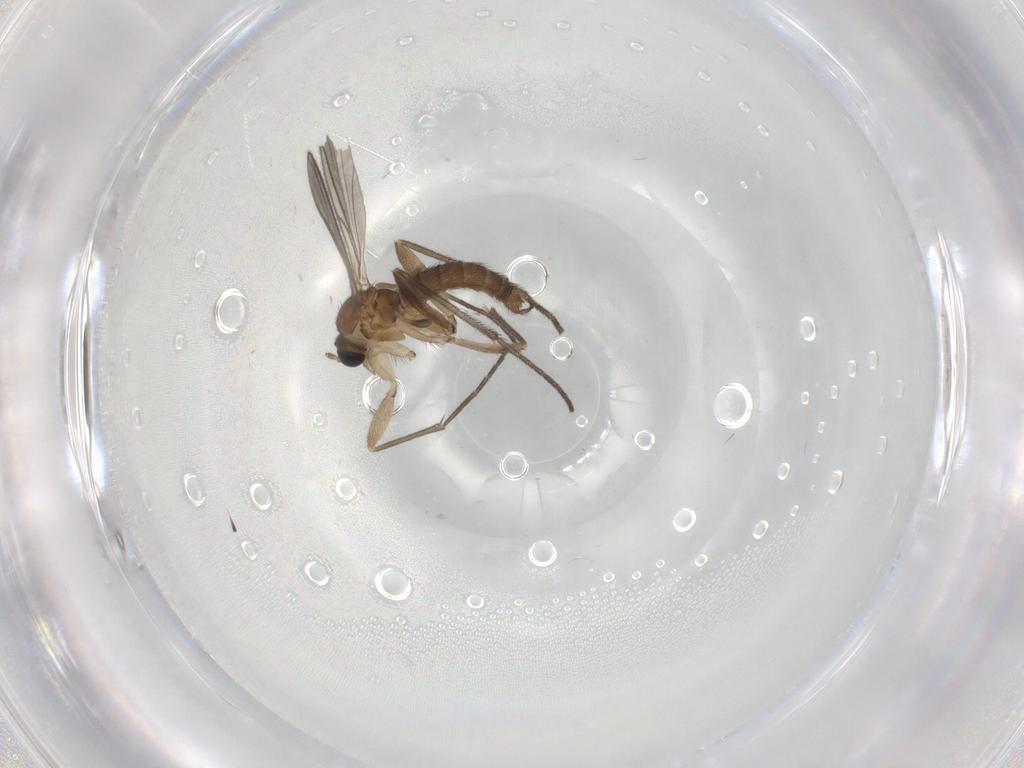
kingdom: Animalia
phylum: Arthropoda
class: Insecta
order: Diptera
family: Sciaridae
